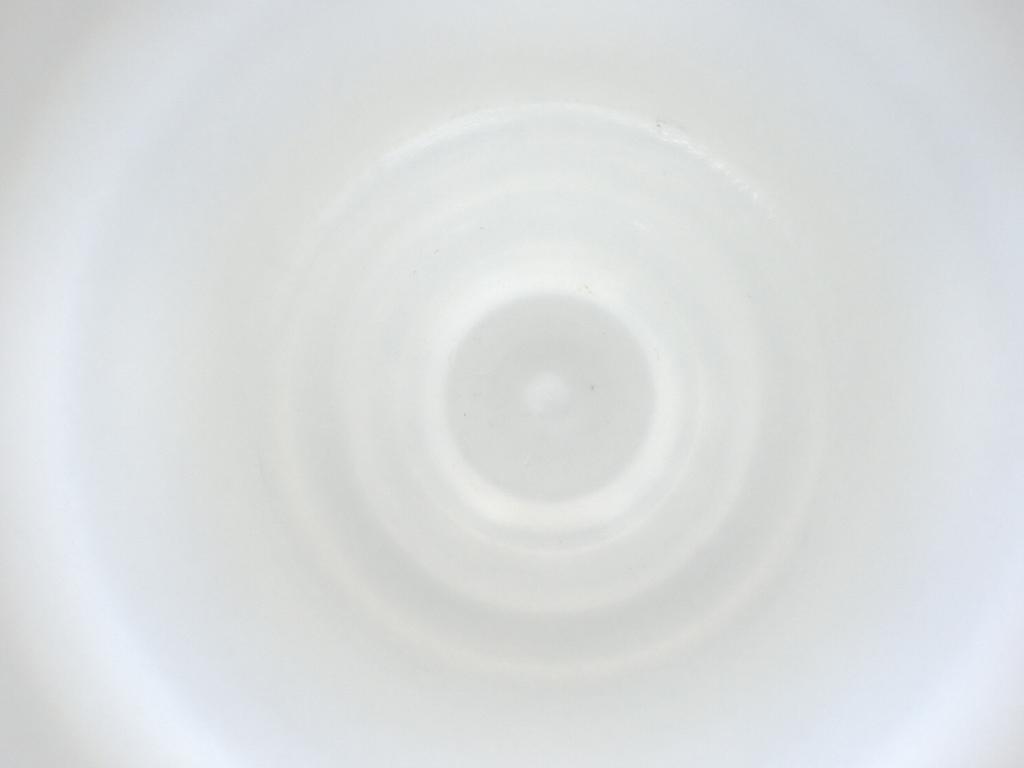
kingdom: Animalia
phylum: Arthropoda
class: Insecta
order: Diptera
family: Cecidomyiidae
